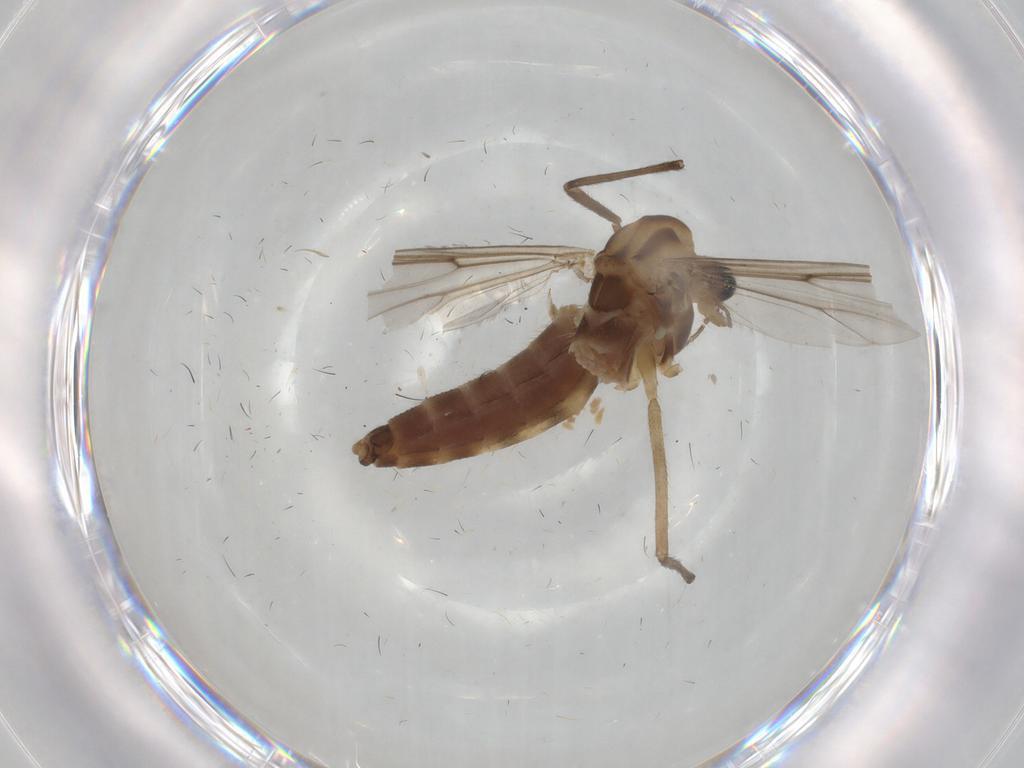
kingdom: Animalia
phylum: Arthropoda
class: Insecta
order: Diptera
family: Chironomidae
